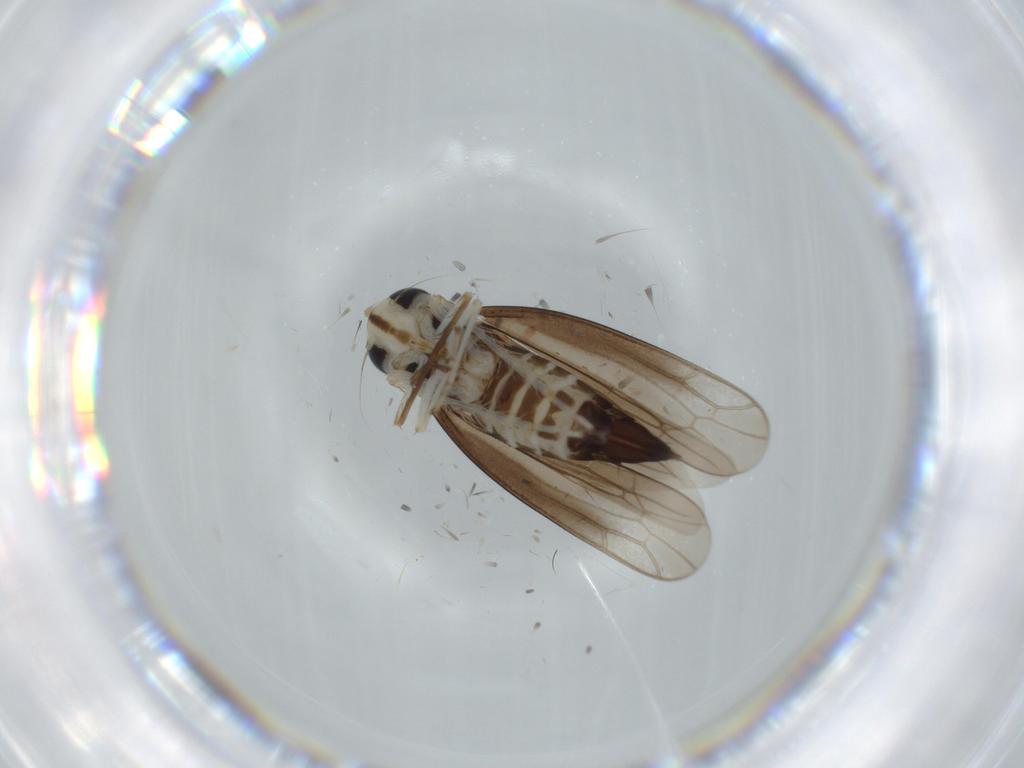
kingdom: Animalia
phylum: Arthropoda
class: Insecta
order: Hemiptera
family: Cicadellidae
